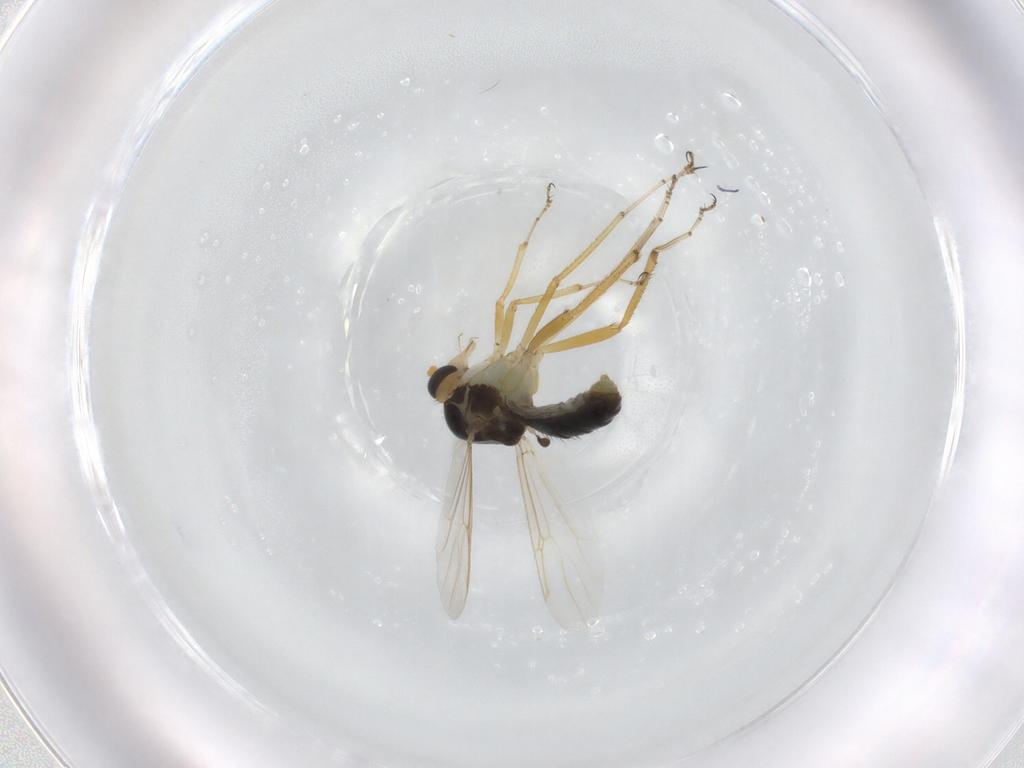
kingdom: Animalia
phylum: Arthropoda
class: Insecta
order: Diptera
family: Ceratopogonidae
